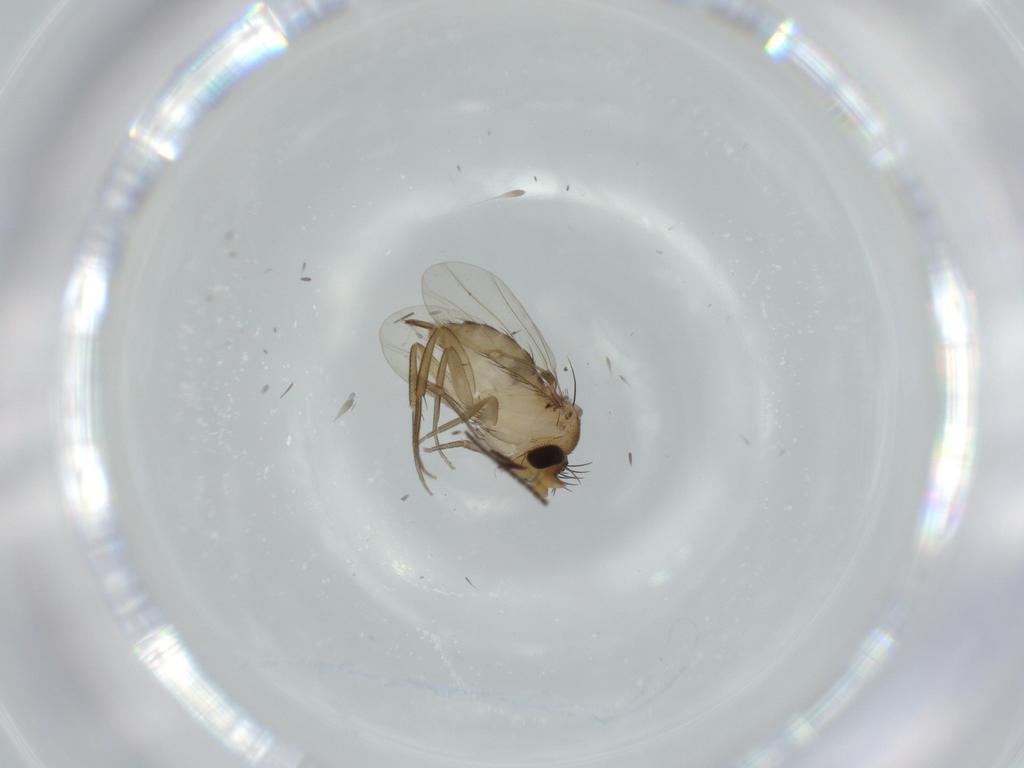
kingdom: Animalia
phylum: Arthropoda
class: Insecta
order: Diptera
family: Phoridae
